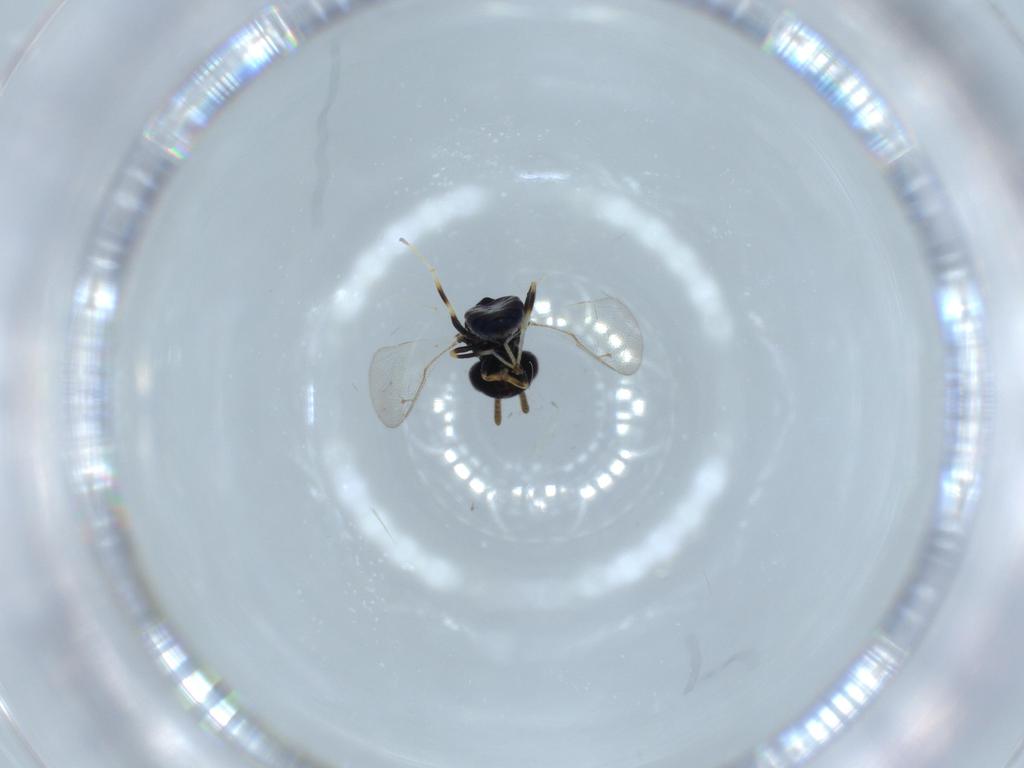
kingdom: Animalia
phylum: Arthropoda
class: Insecta
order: Hymenoptera
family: Pteromalidae
